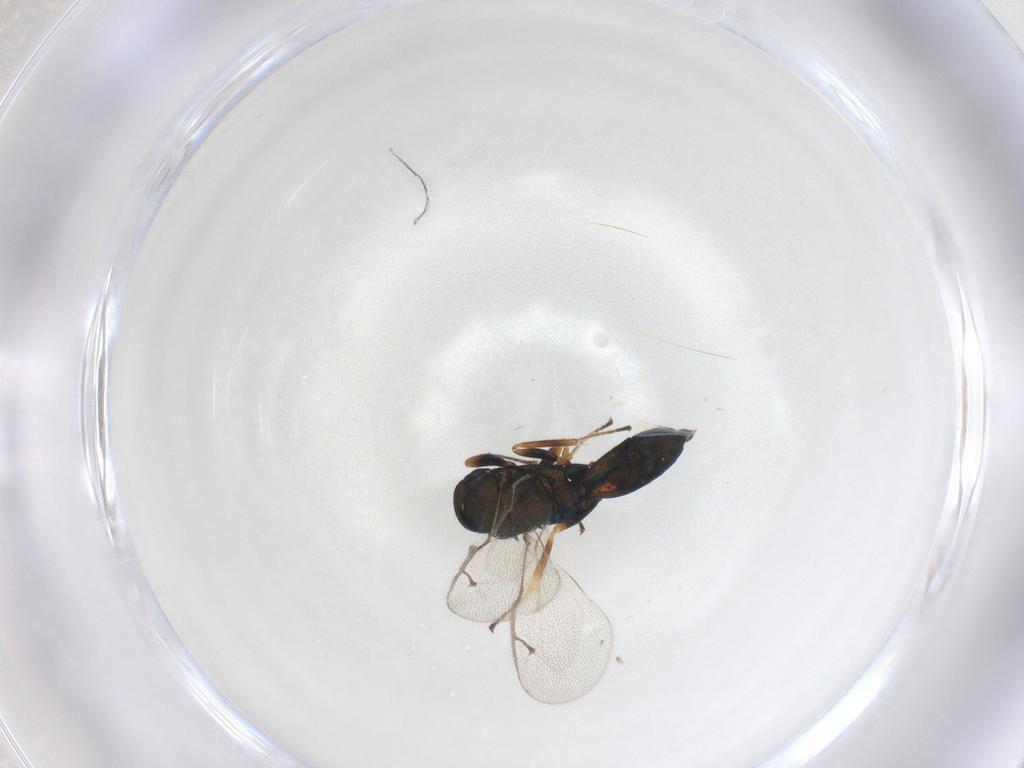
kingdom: Animalia
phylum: Arthropoda
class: Insecta
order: Hymenoptera
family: Pteromalidae
